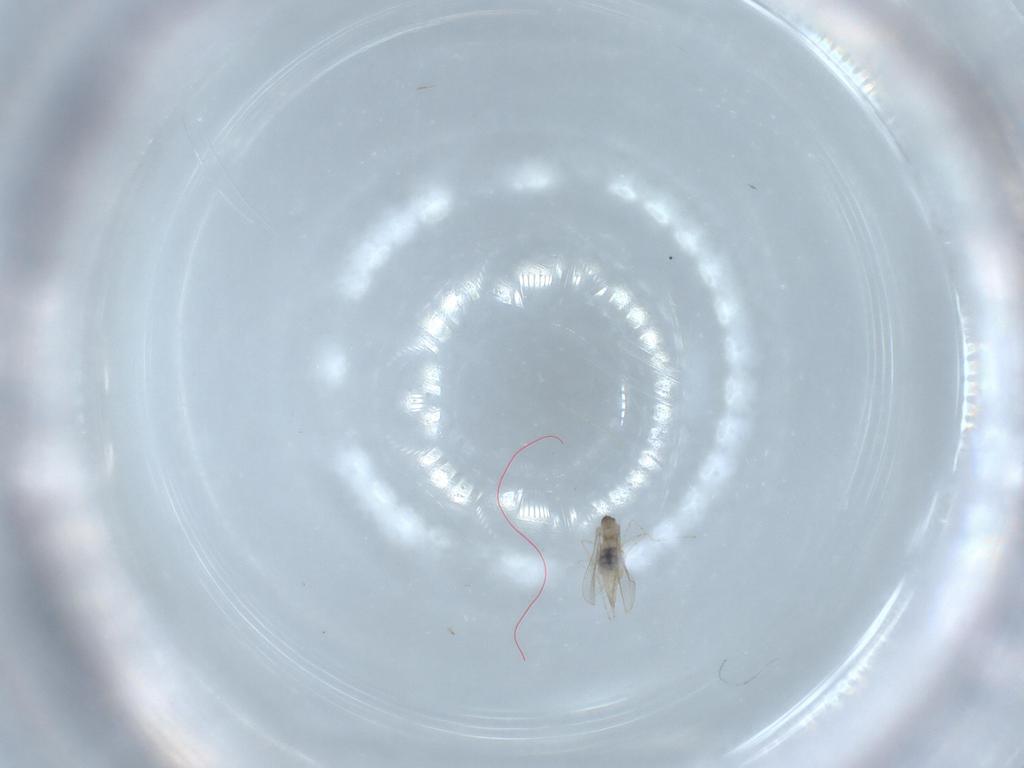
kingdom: Animalia
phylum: Arthropoda
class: Insecta
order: Diptera
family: Cecidomyiidae
